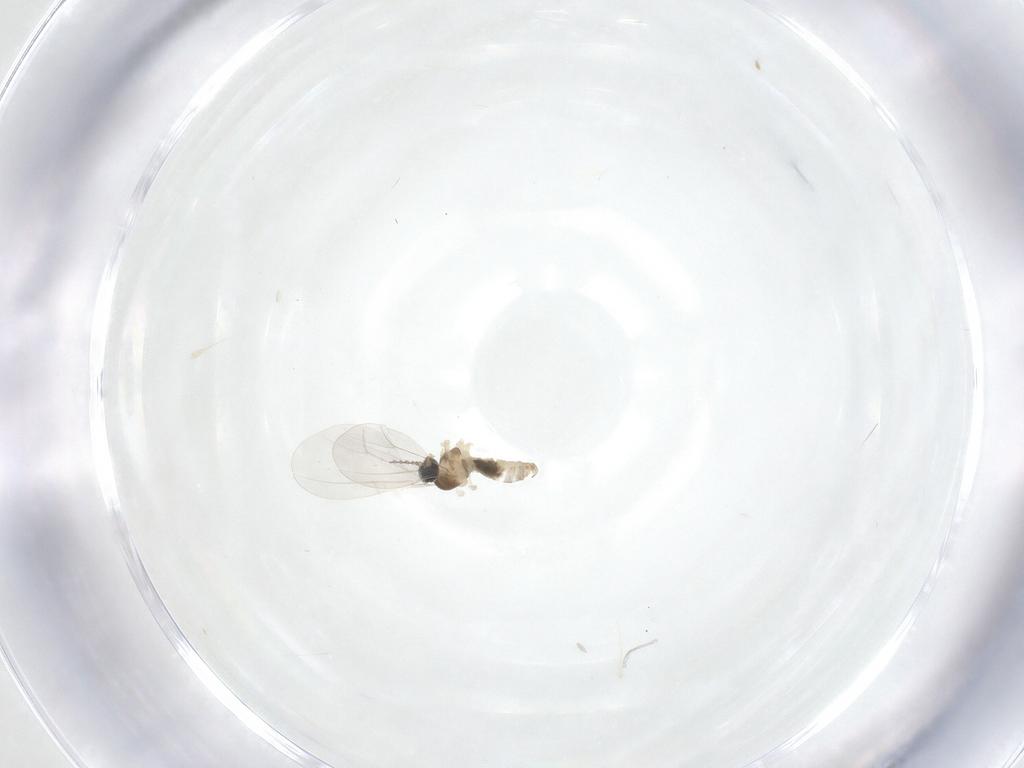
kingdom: Animalia
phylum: Arthropoda
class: Insecta
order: Diptera
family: Cecidomyiidae
